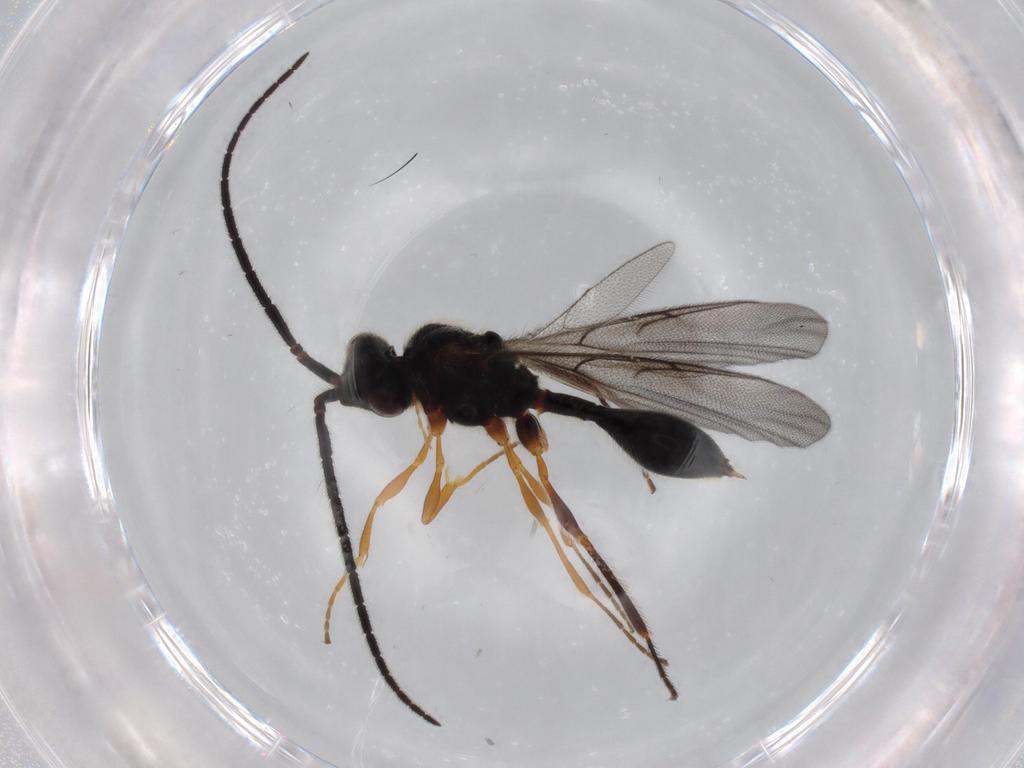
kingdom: Animalia
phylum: Arthropoda
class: Insecta
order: Hymenoptera
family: Diapriidae
